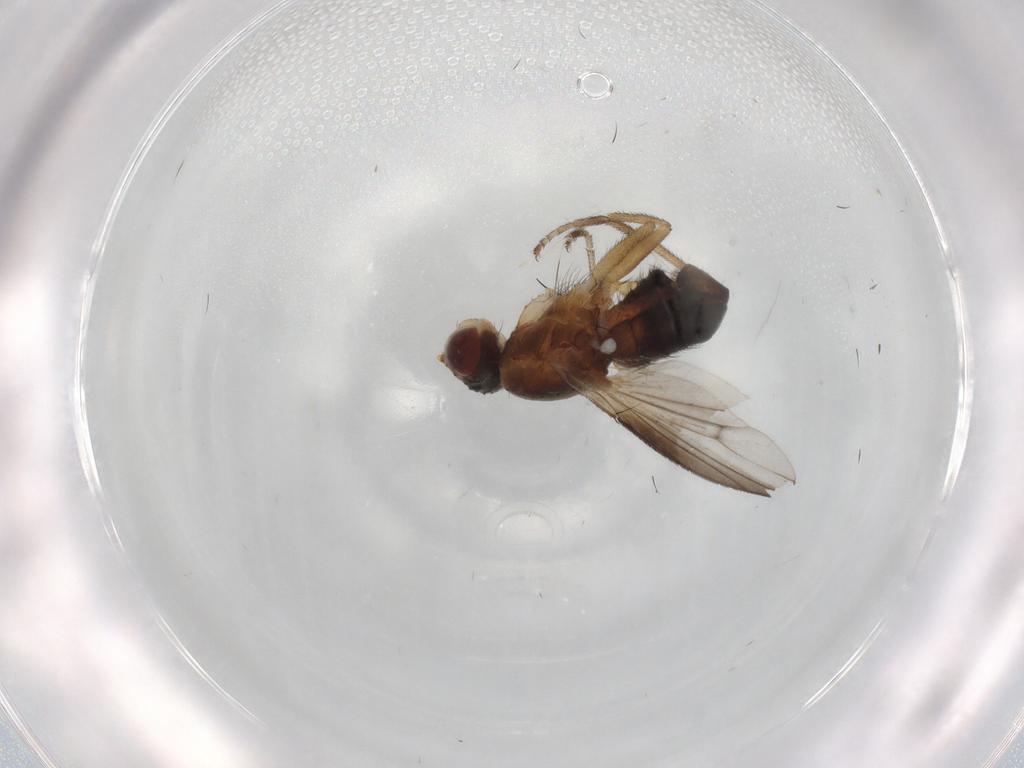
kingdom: Animalia
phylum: Arthropoda
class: Insecta
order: Diptera
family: Heleomyzidae
